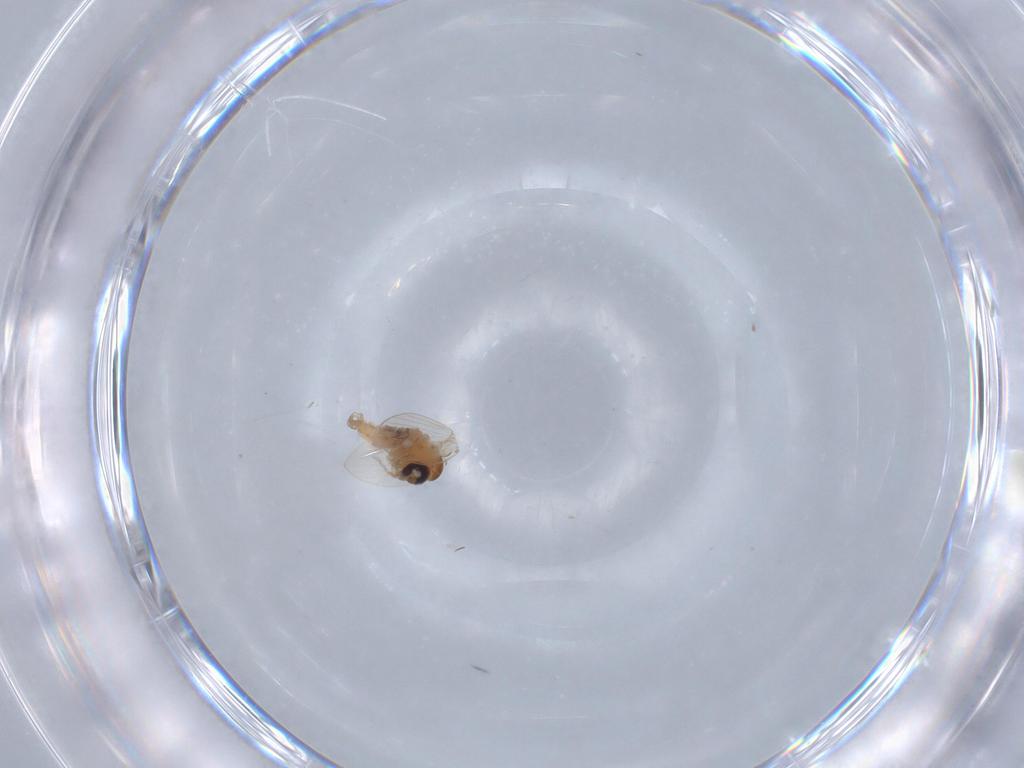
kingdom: Animalia
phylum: Arthropoda
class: Insecta
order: Diptera
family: Chironomidae
